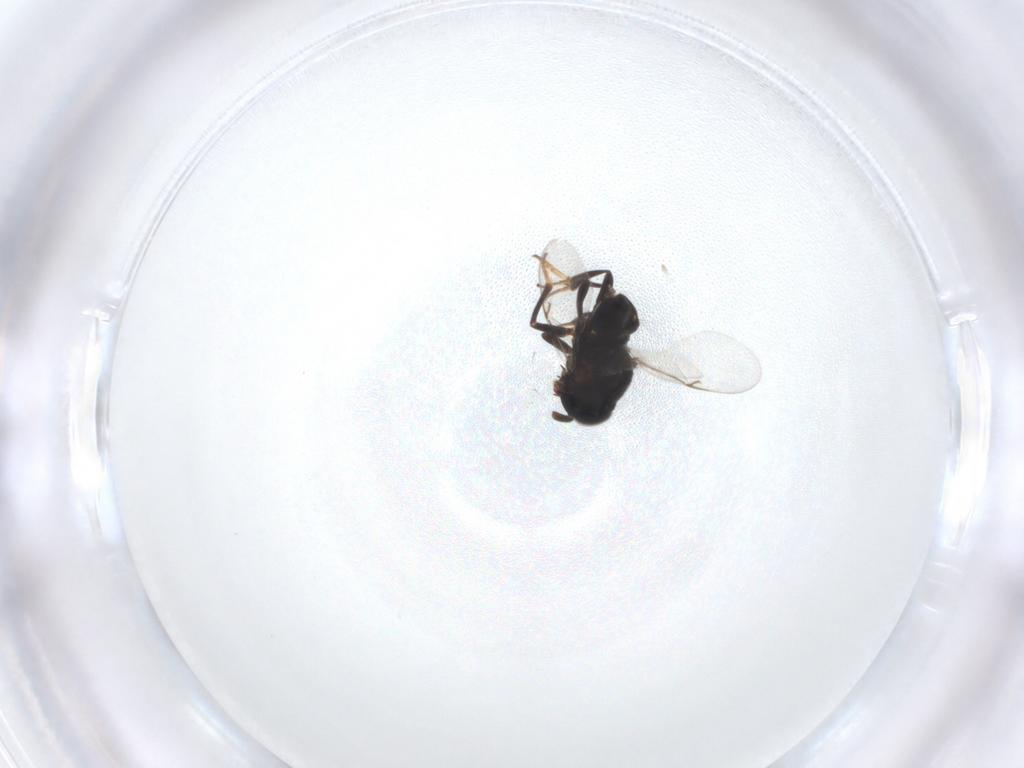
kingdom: Animalia
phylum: Arthropoda
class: Insecta
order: Hymenoptera
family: Encyrtidae
